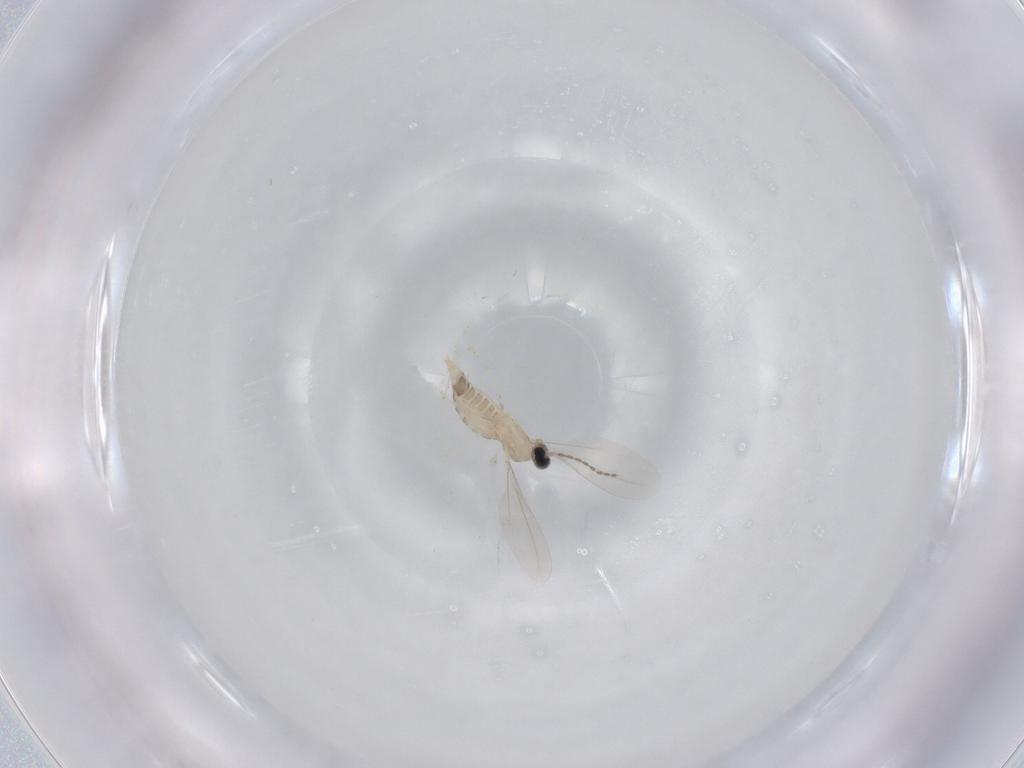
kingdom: Animalia
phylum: Arthropoda
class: Insecta
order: Diptera
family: Cecidomyiidae
